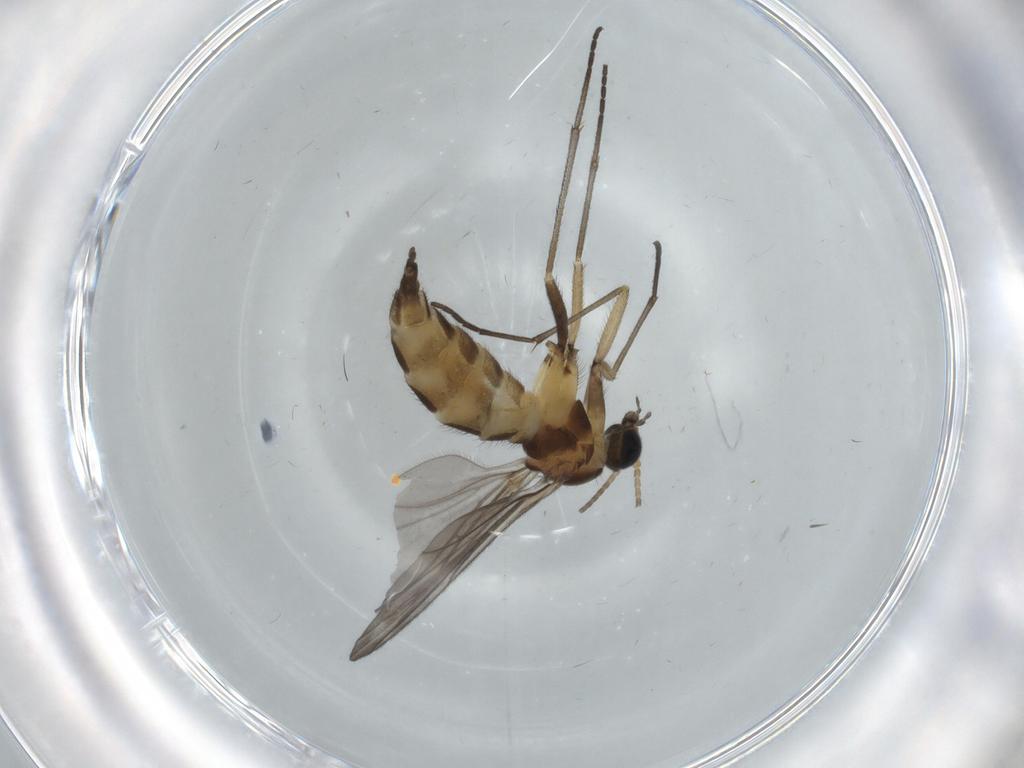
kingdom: Animalia
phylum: Arthropoda
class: Insecta
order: Diptera
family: Sciaridae
